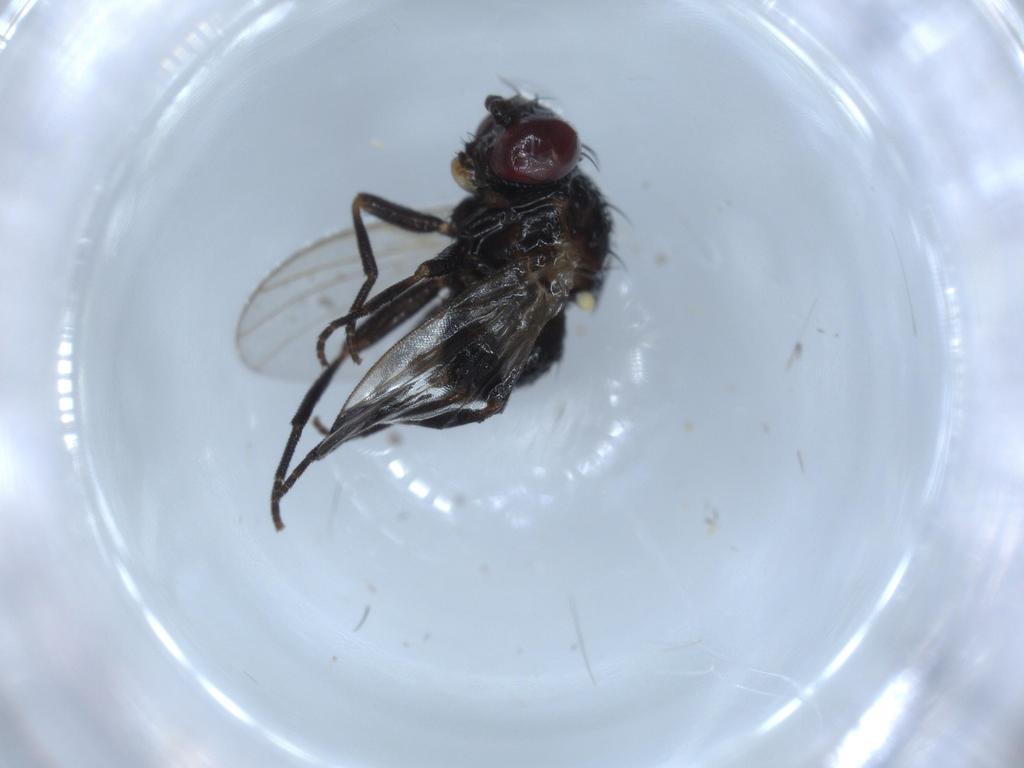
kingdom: Animalia
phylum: Arthropoda
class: Insecta
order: Diptera
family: Agromyzidae
